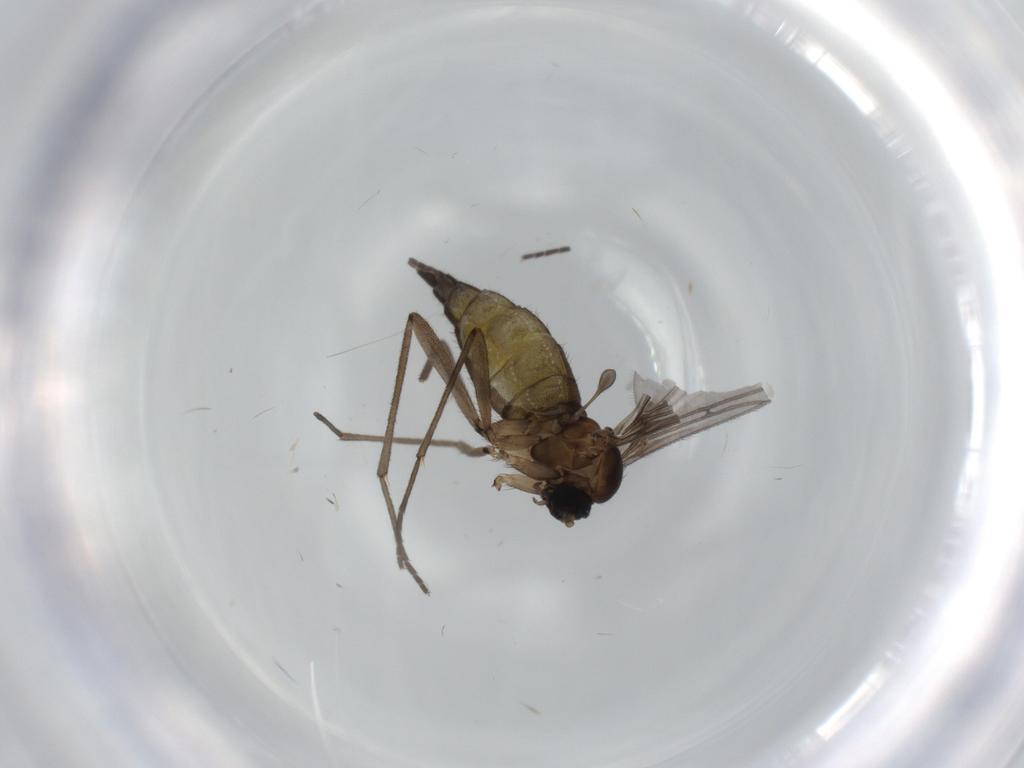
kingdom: Animalia
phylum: Arthropoda
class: Insecta
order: Diptera
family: Sciaridae
